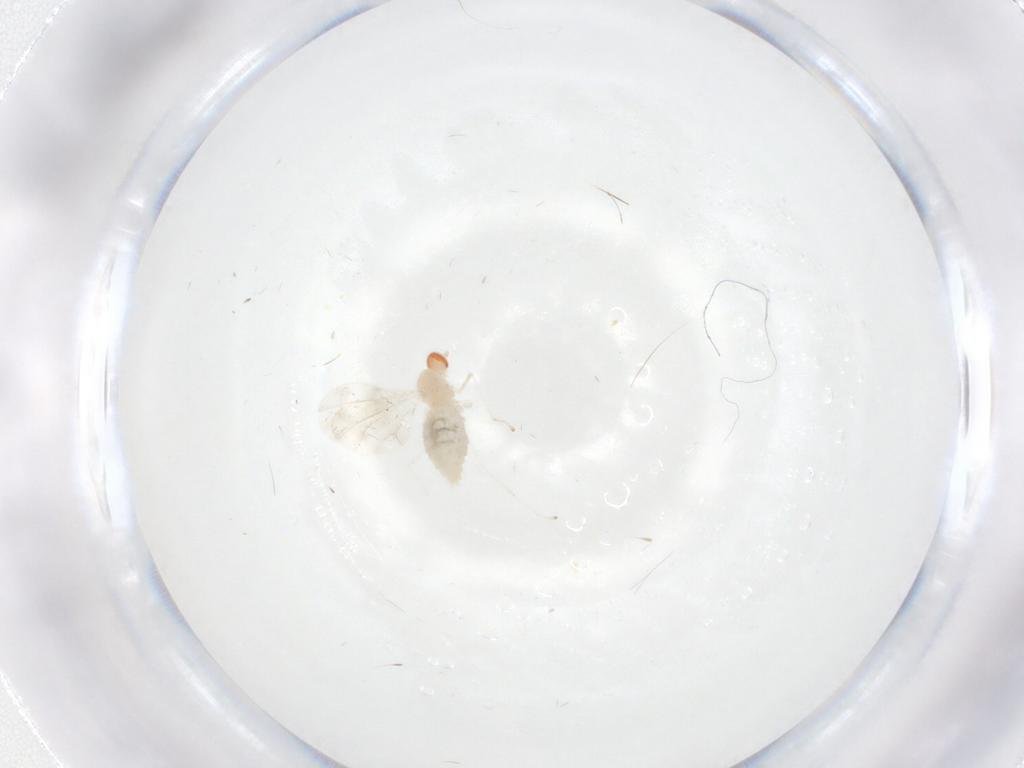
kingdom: Animalia
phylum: Arthropoda
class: Insecta
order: Diptera
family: Cecidomyiidae
